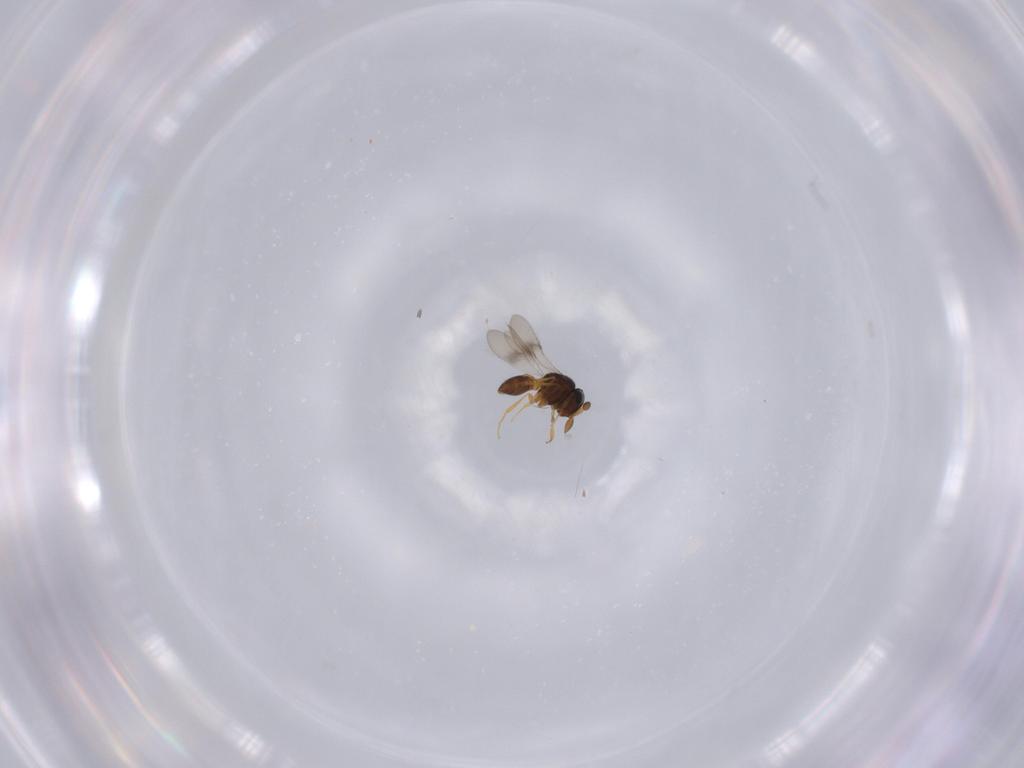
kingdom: Animalia
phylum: Arthropoda
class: Insecta
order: Hymenoptera
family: Scelionidae
